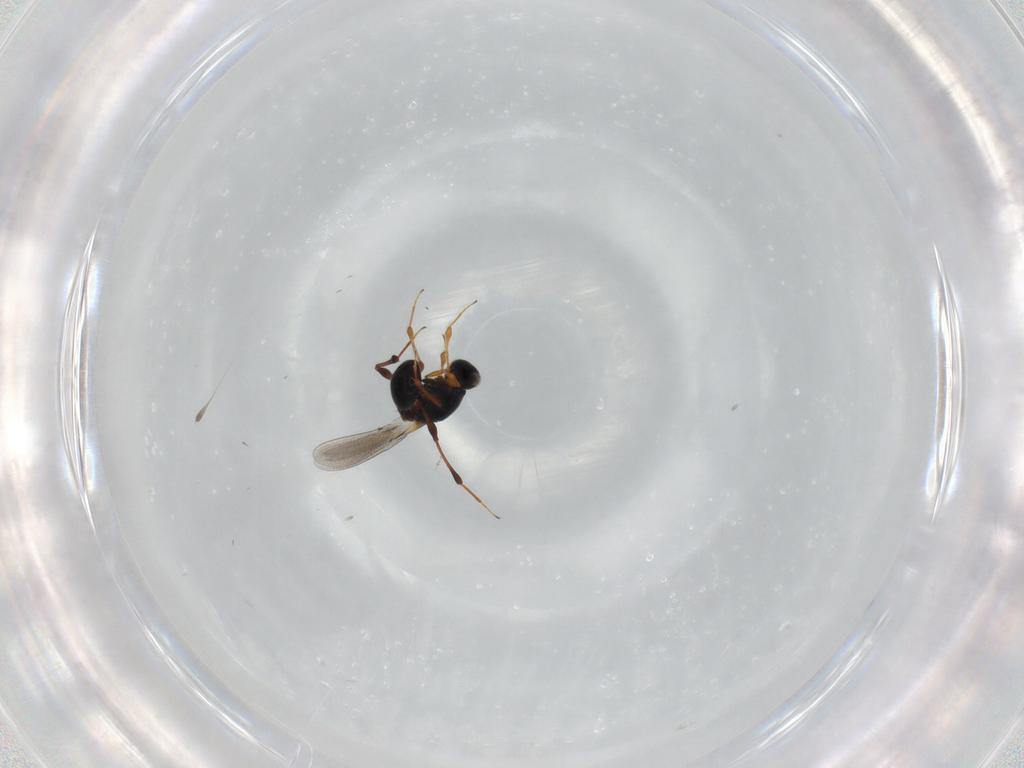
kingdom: Animalia
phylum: Arthropoda
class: Insecta
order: Hymenoptera
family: Platygastridae
